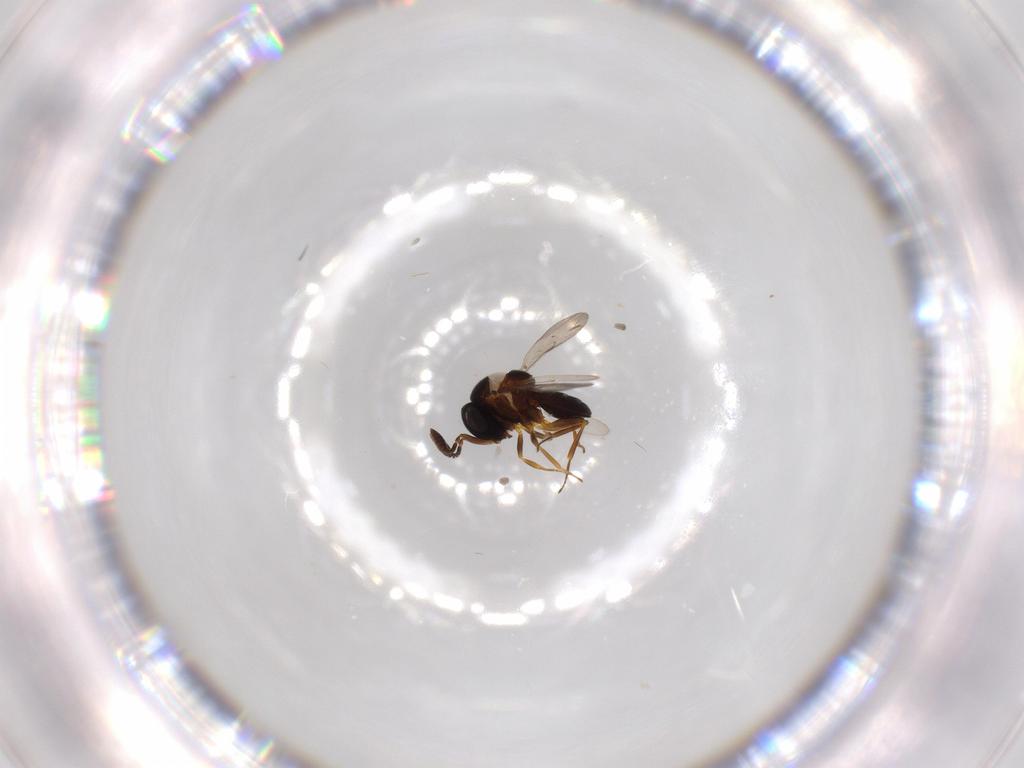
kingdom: Animalia
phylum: Arthropoda
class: Insecta
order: Hymenoptera
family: Scelionidae
